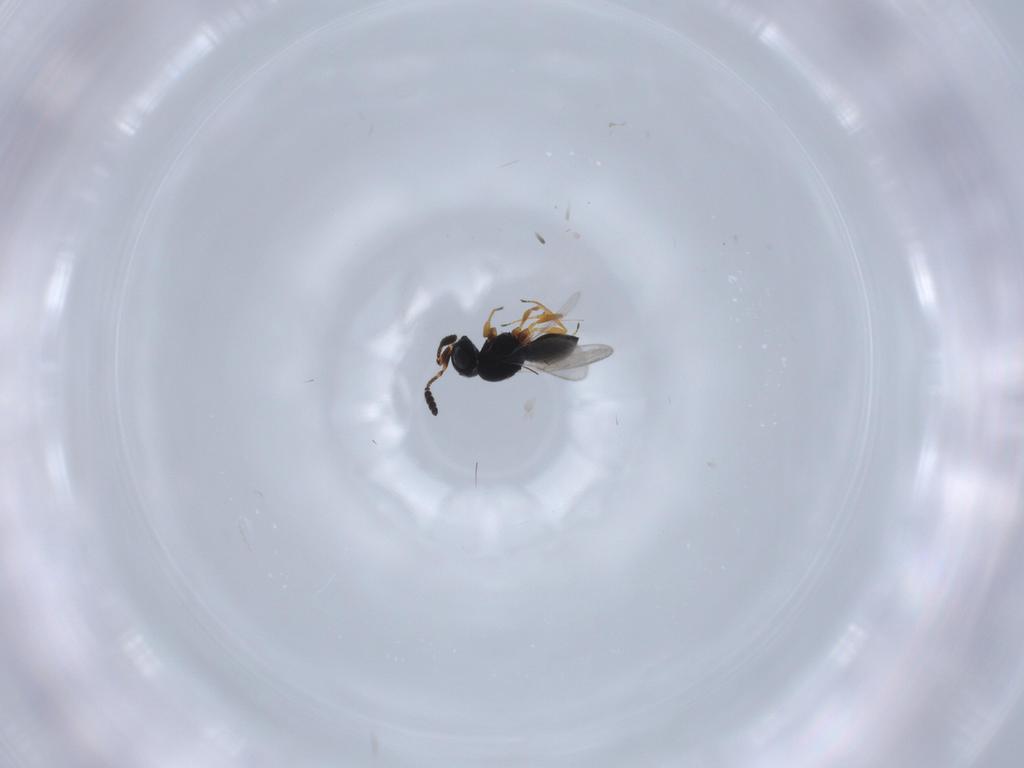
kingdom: Animalia
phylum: Arthropoda
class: Insecta
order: Hymenoptera
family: Scelionidae
